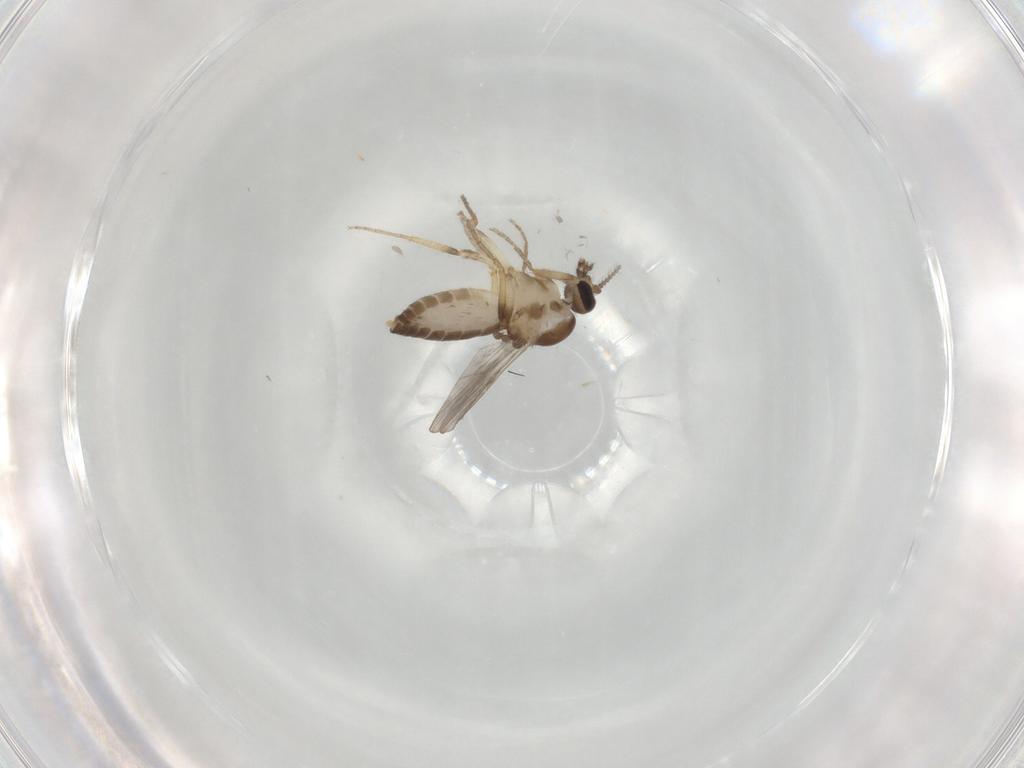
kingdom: Animalia
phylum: Arthropoda
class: Insecta
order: Diptera
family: Ceratopogonidae
